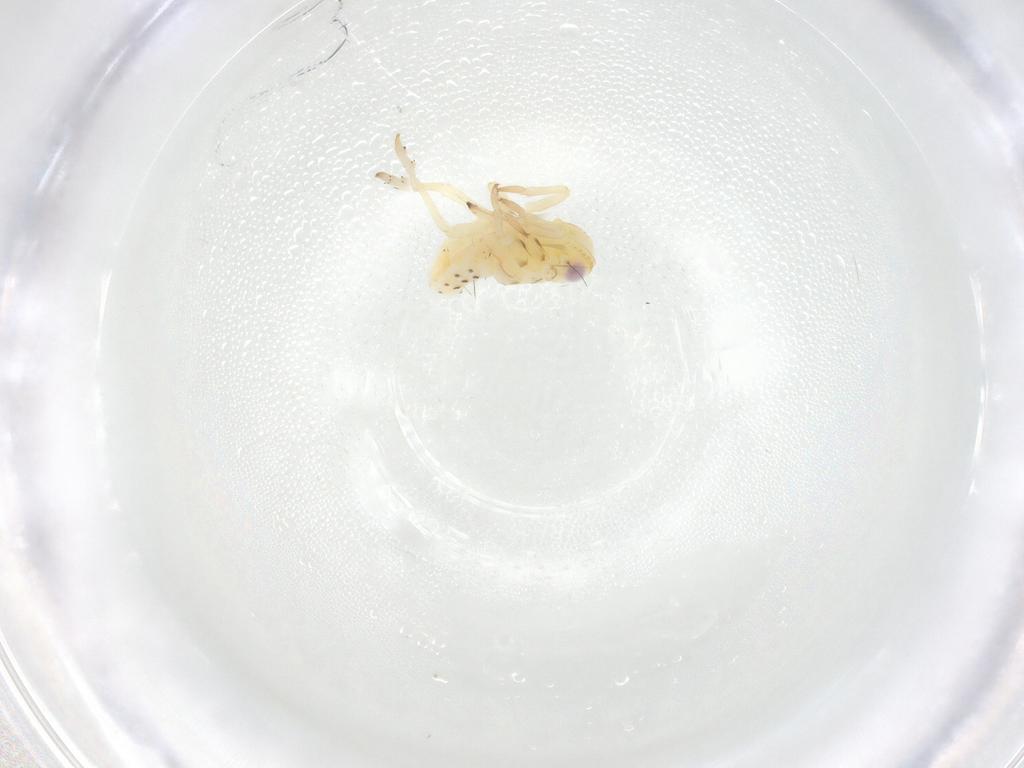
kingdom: Animalia
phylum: Arthropoda
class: Insecta
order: Hemiptera
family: Tropiduchidae
